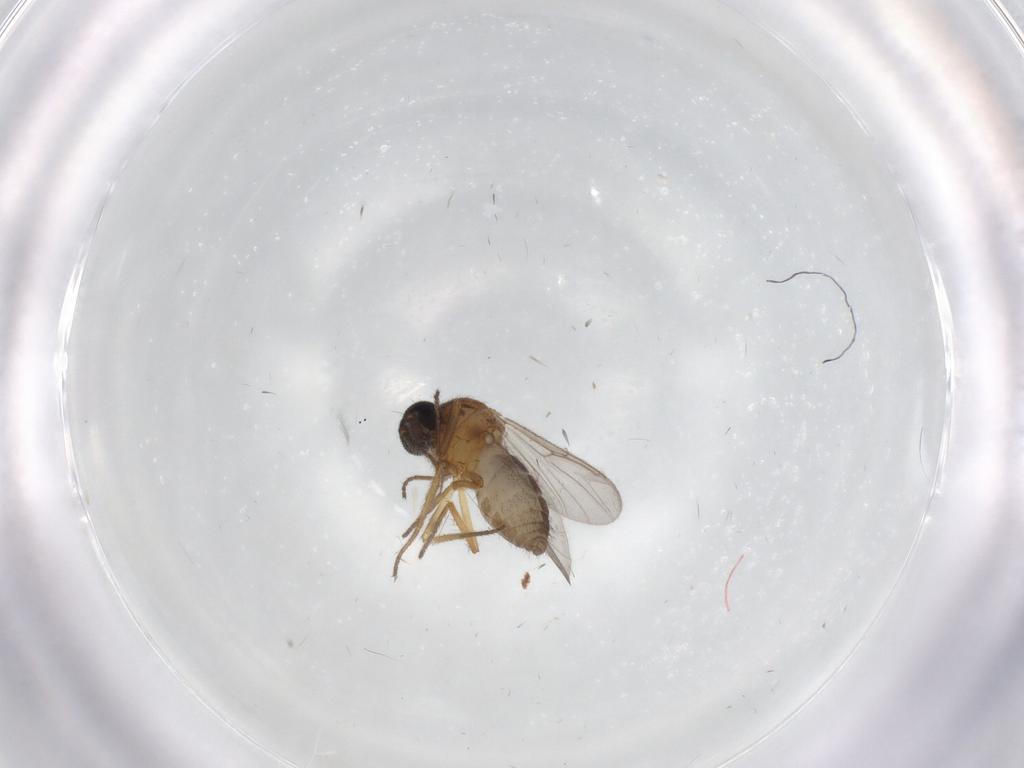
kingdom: Animalia
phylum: Arthropoda
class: Insecta
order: Diptera
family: Ceratopogonidae
